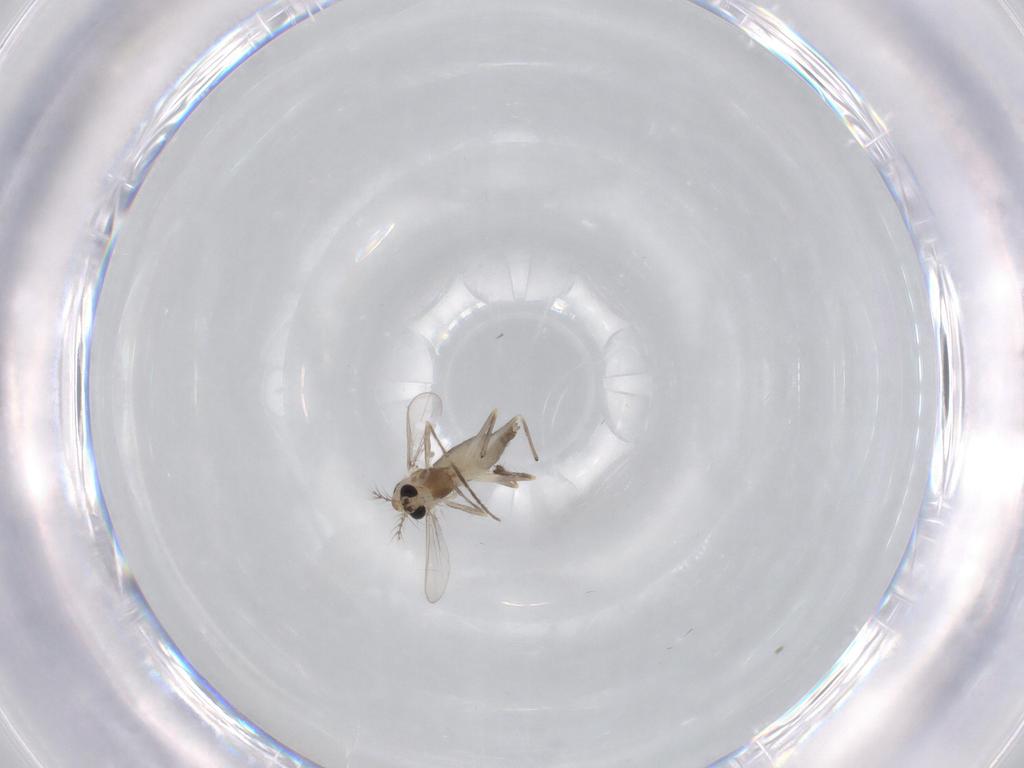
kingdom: Animalia
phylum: Arthropoda
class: Insecta
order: Diptera
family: Chironomidae
